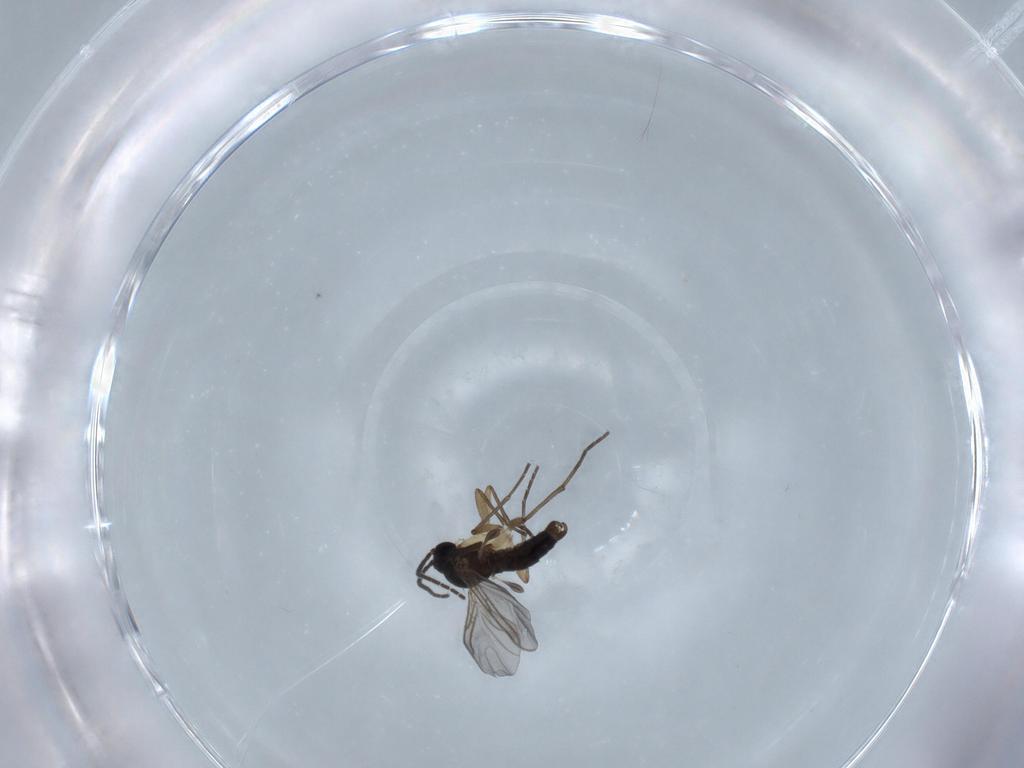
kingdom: Animalia
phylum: Arthropoda
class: Insecta
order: Diptera
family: Sciaridae
